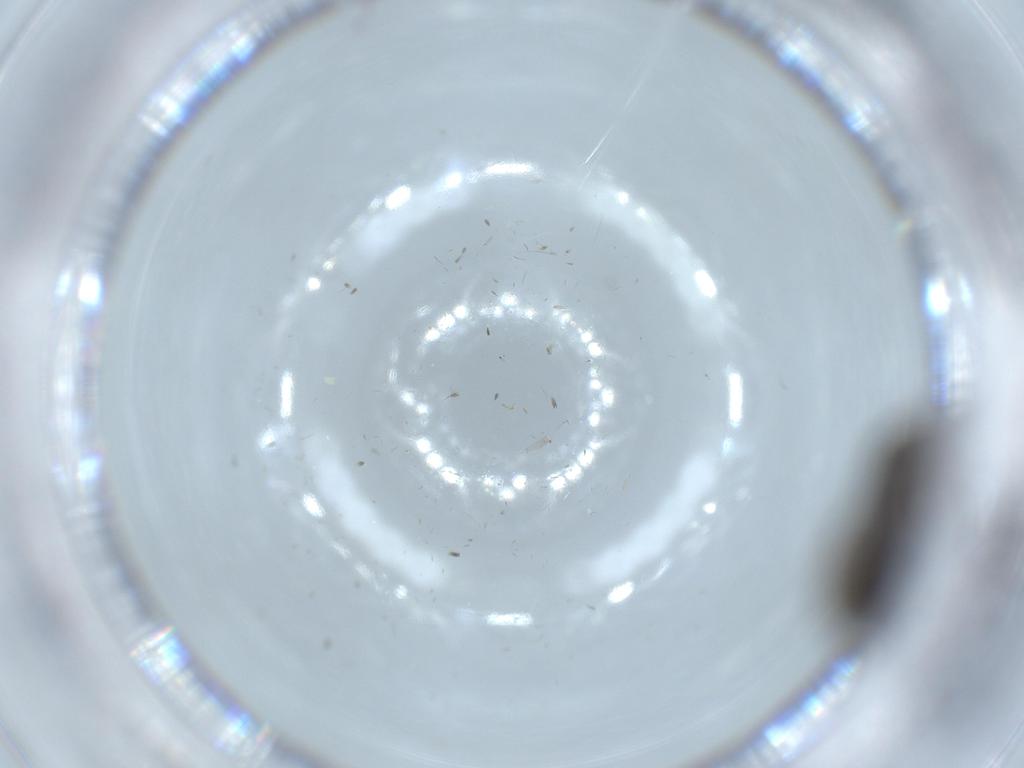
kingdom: Animalia
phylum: Arthropoda
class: Insecta
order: Diptera
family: Sciaridae
